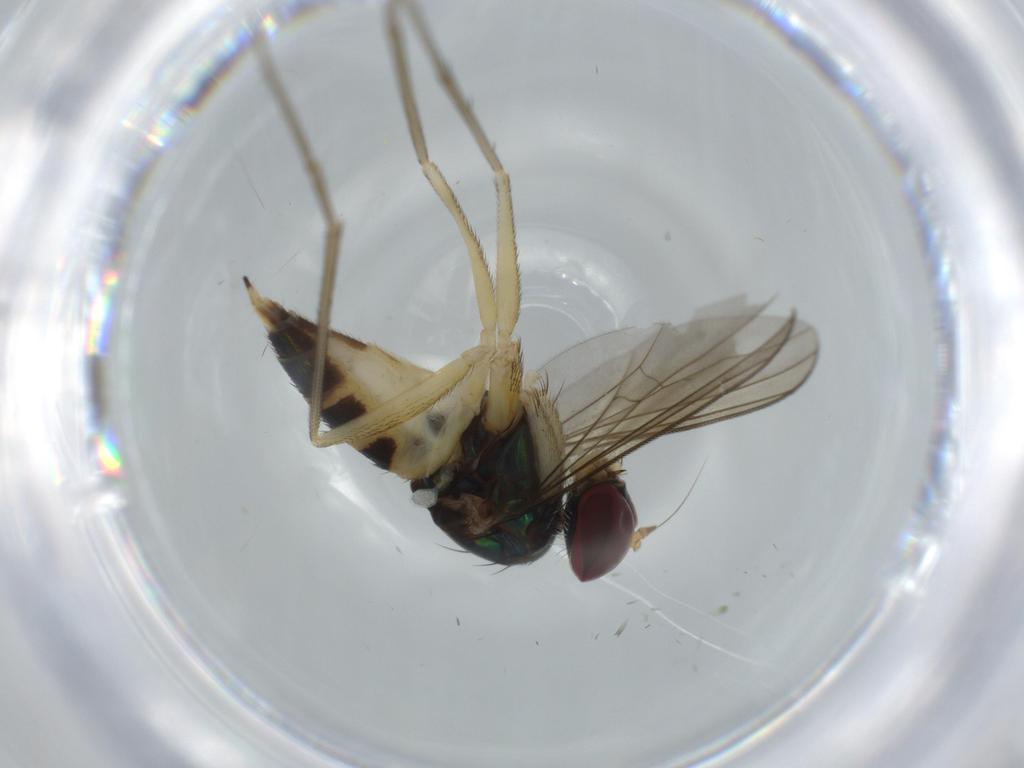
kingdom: Animalia
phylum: Arthropoda
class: Insecta
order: Diptera
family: Dolichopodidae
